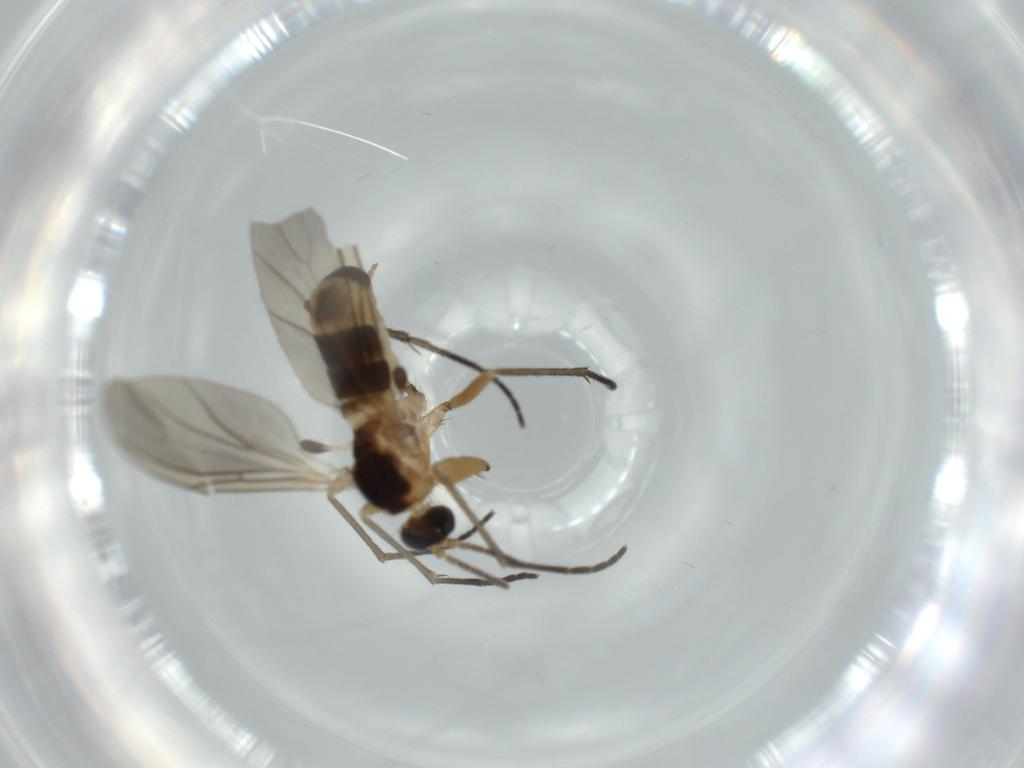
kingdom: Animalia
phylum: Arthropoda
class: Insecta
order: Diptera
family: Sciaridae
